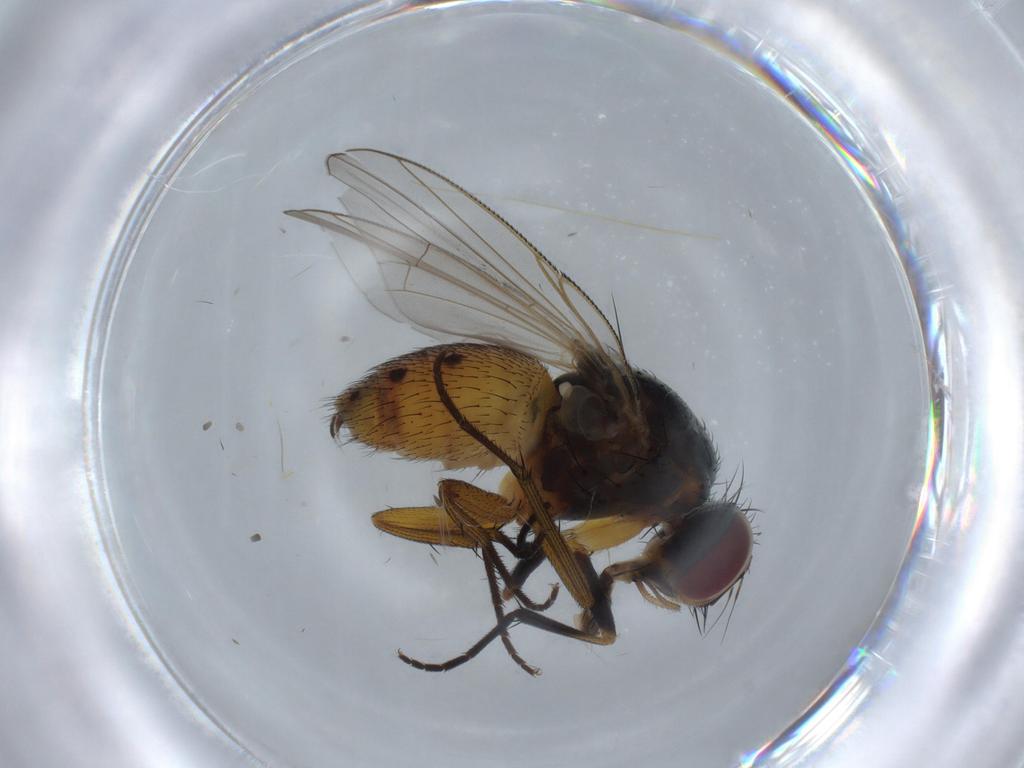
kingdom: Animalia
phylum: Arthropoda
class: Insecta
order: Diptera
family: Muscidae
